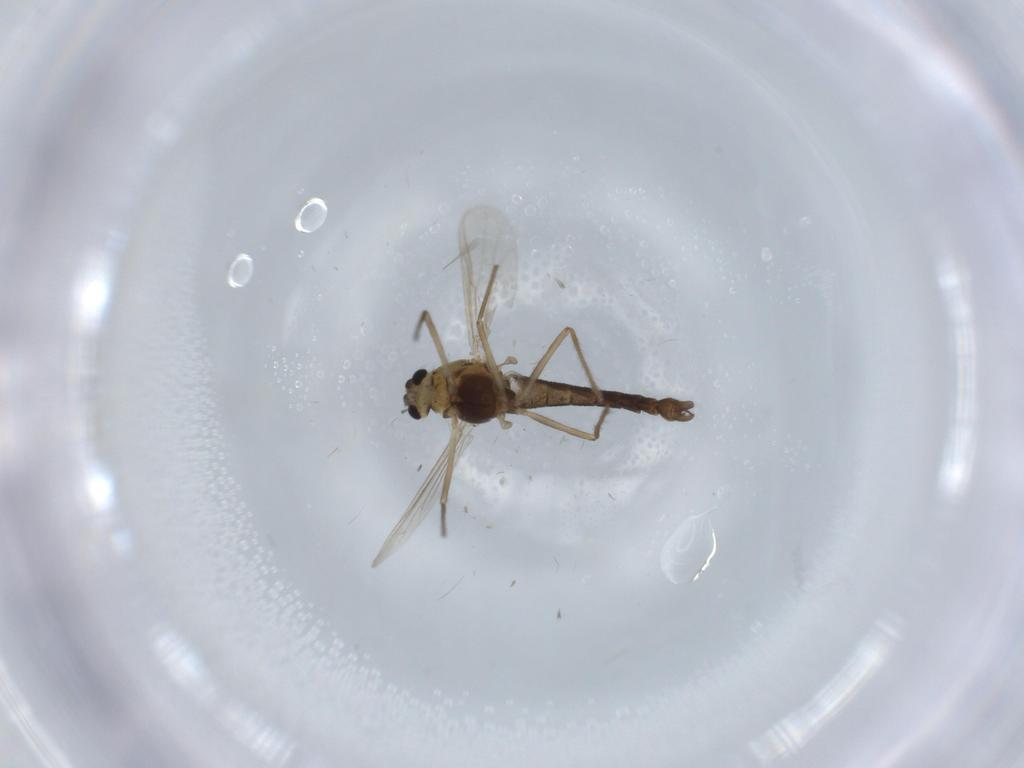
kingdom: Animalia
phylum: Arthropoda
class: Insecta
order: Diptera
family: Chironomidae
